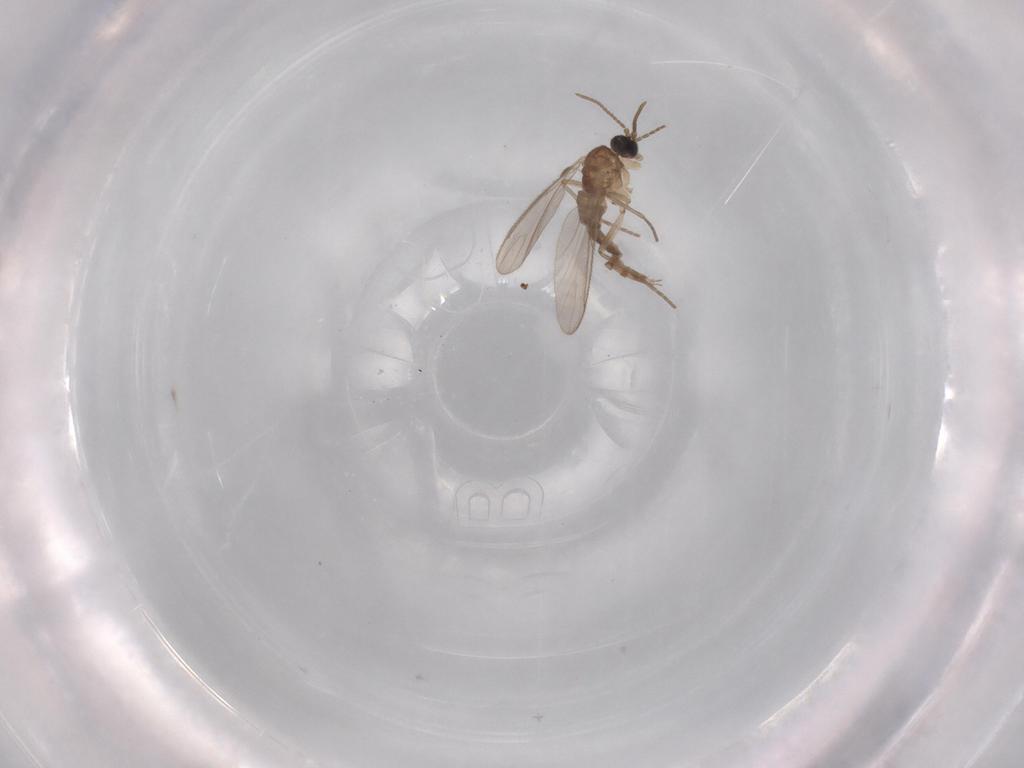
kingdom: Animalia
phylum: Arthropoda
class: Insecta
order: Diptera
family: Sciaridae
